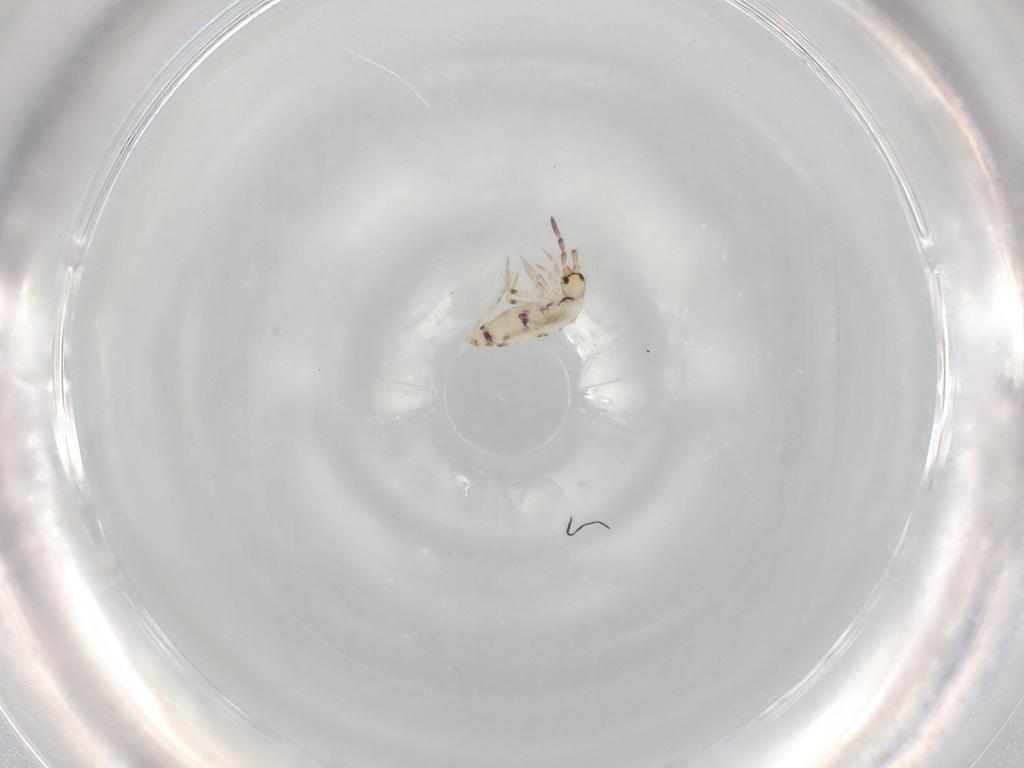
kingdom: Animalia
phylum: Arthropoda
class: Collembola
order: Entomobryomorpha
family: Entomobryidae
